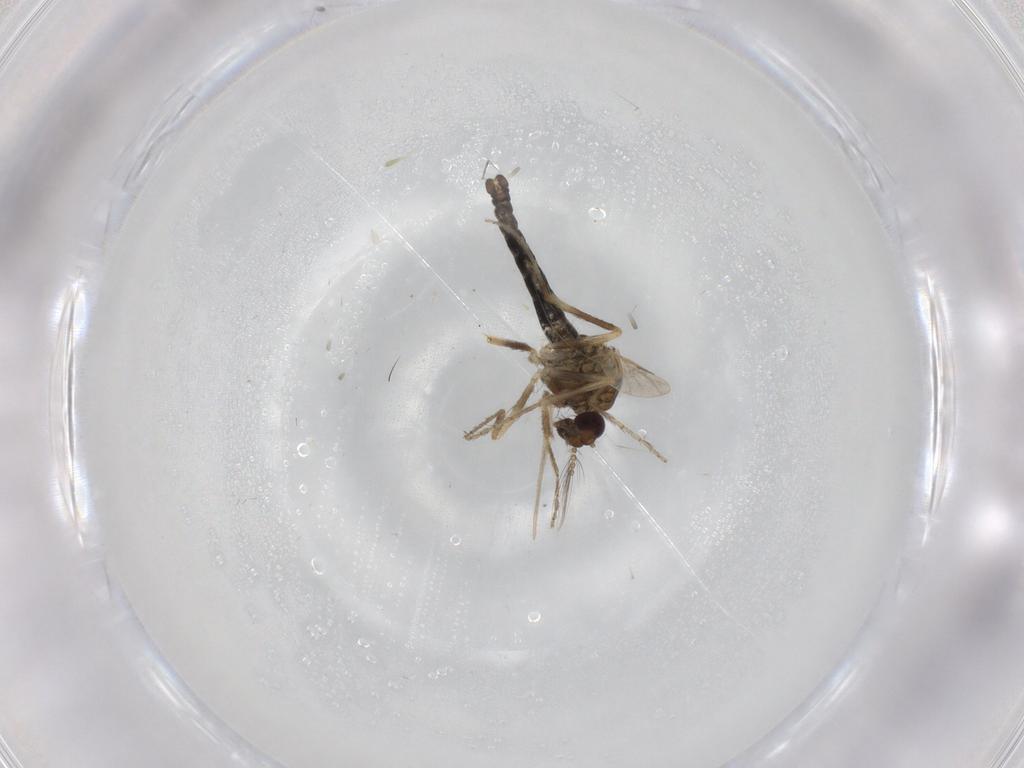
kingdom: Animalia
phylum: Arthropoda
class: Insecta
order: Diptera
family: Ceratopogonidae
